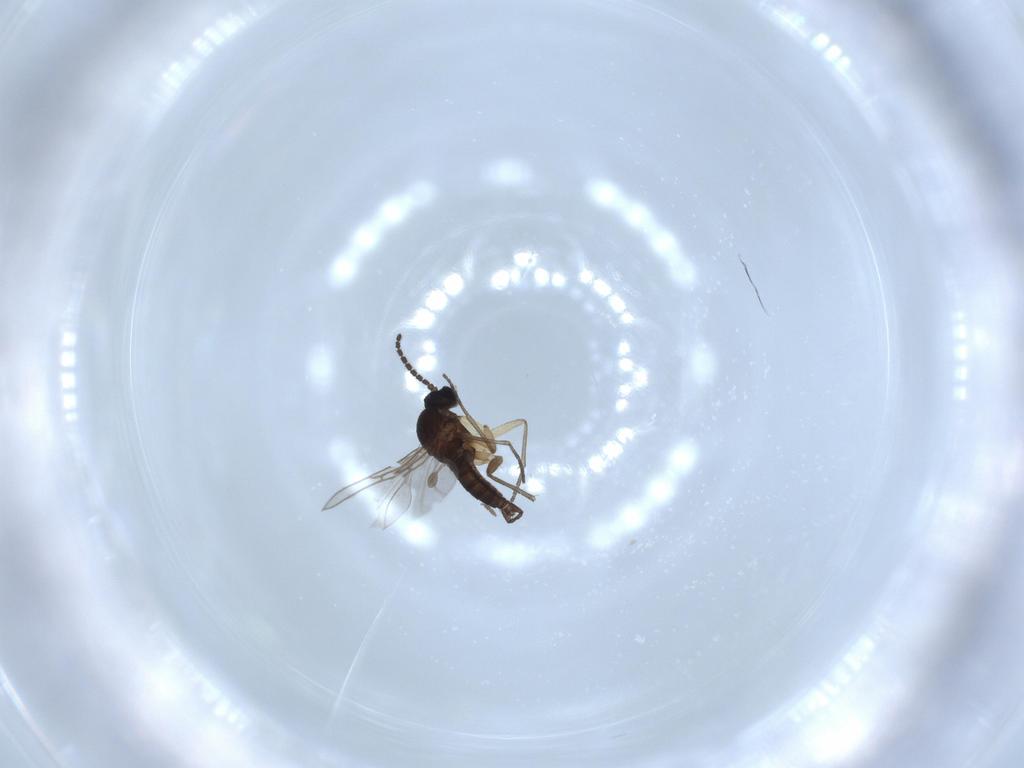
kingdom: Animalia
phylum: Arthropoda
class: Insecta
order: Diptera
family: Sciaridae
